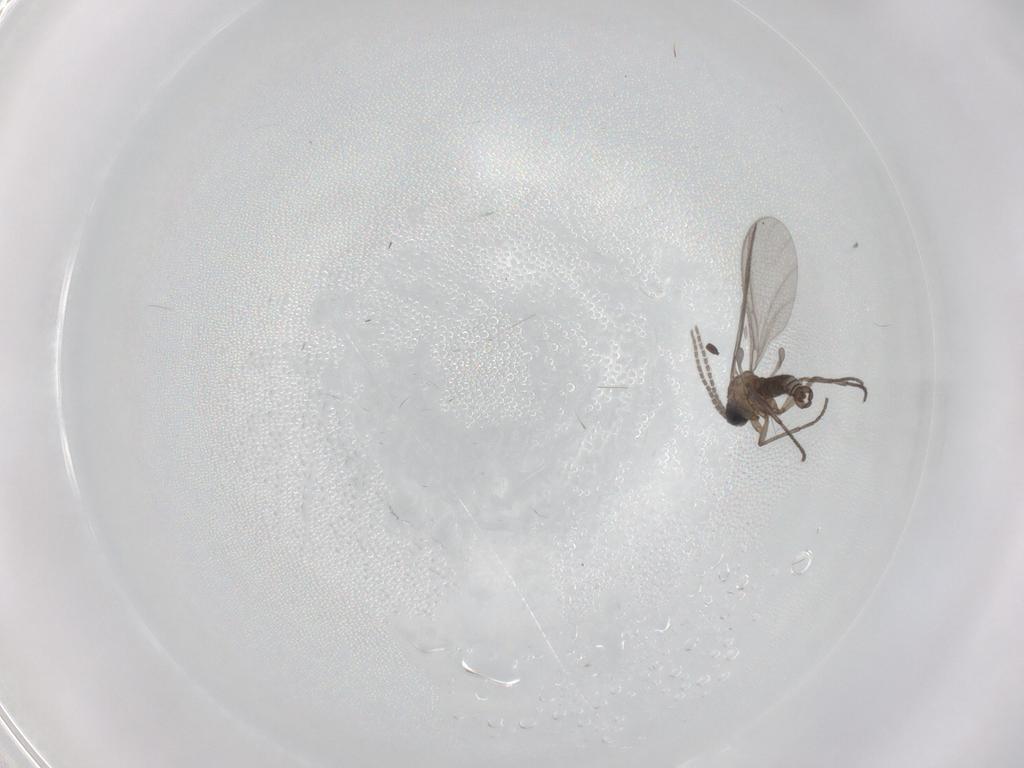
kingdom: Animalia
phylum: Arthropoda
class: Insecta
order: Diptera
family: Sciaridae
